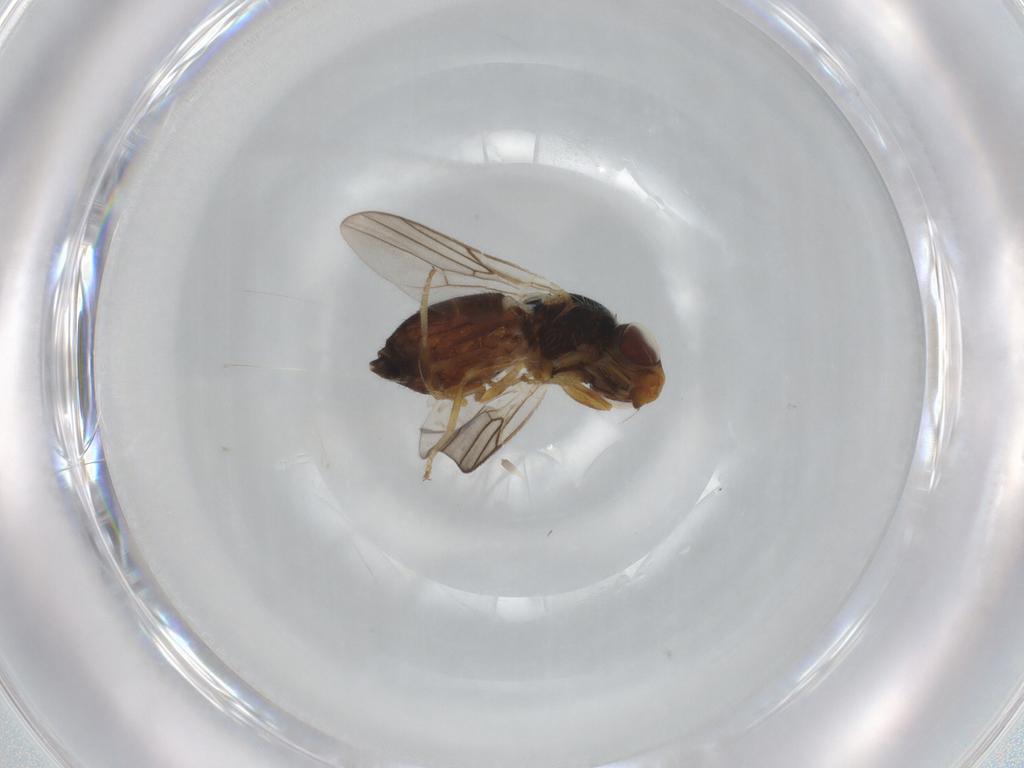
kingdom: Animalia
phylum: Arthropoda
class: Insecta
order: Diptera
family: Chloropidae
